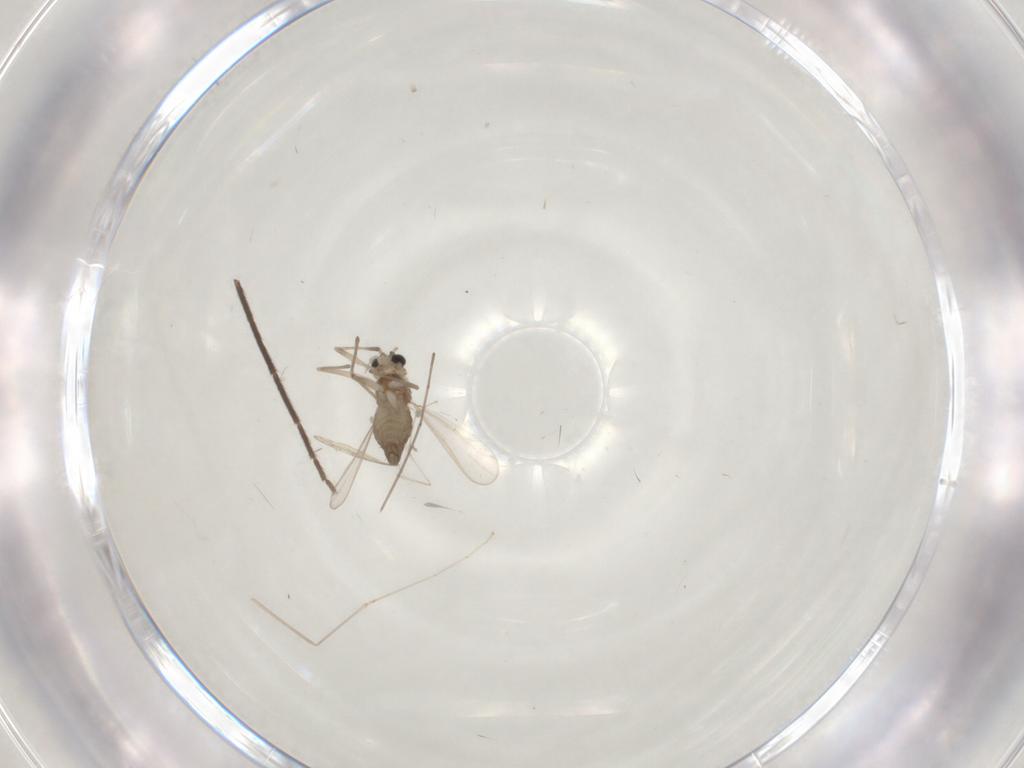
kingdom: Animalia
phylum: Arthropoda
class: Insecta
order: Diptera
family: Chironomidae
